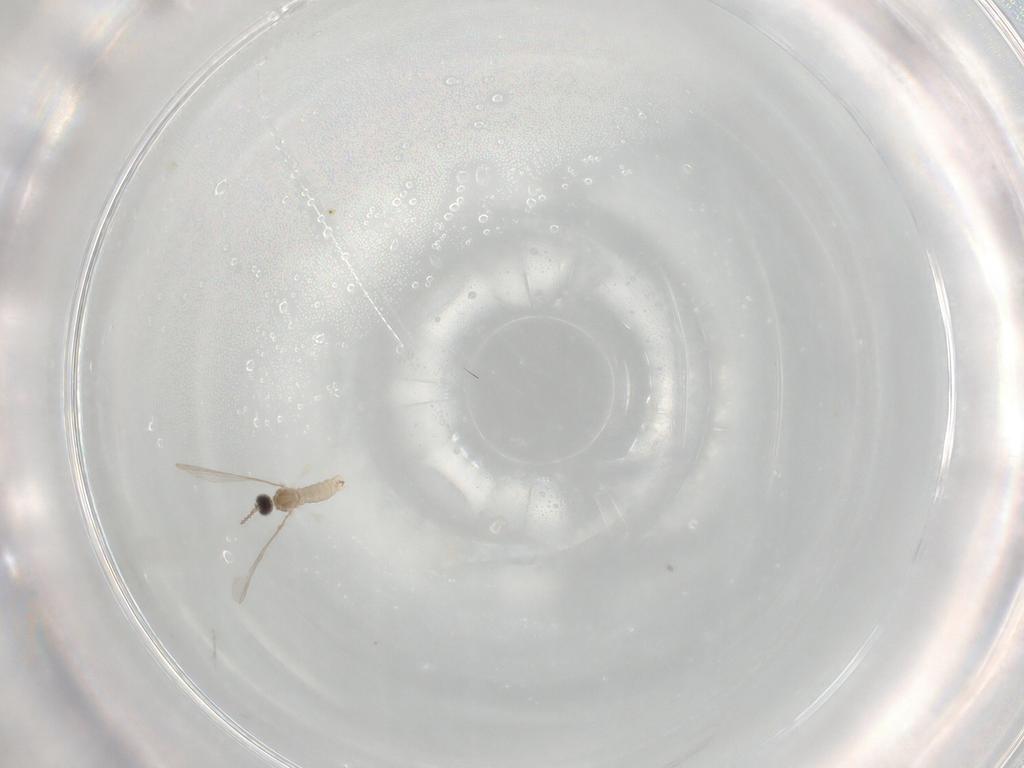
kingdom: Animalia
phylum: Arthropoda
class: Insecta
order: Diptera
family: Cecidomyiidae
